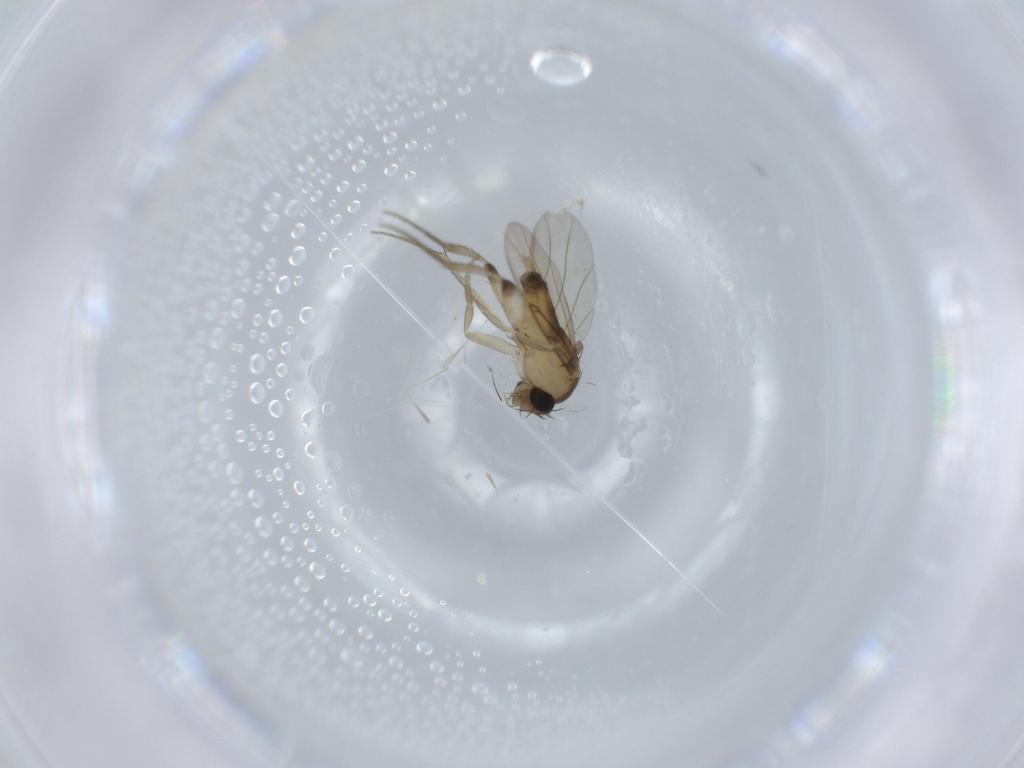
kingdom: Animalia
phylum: Arthropoda
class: Insecta
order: Diptera
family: Phoridae
